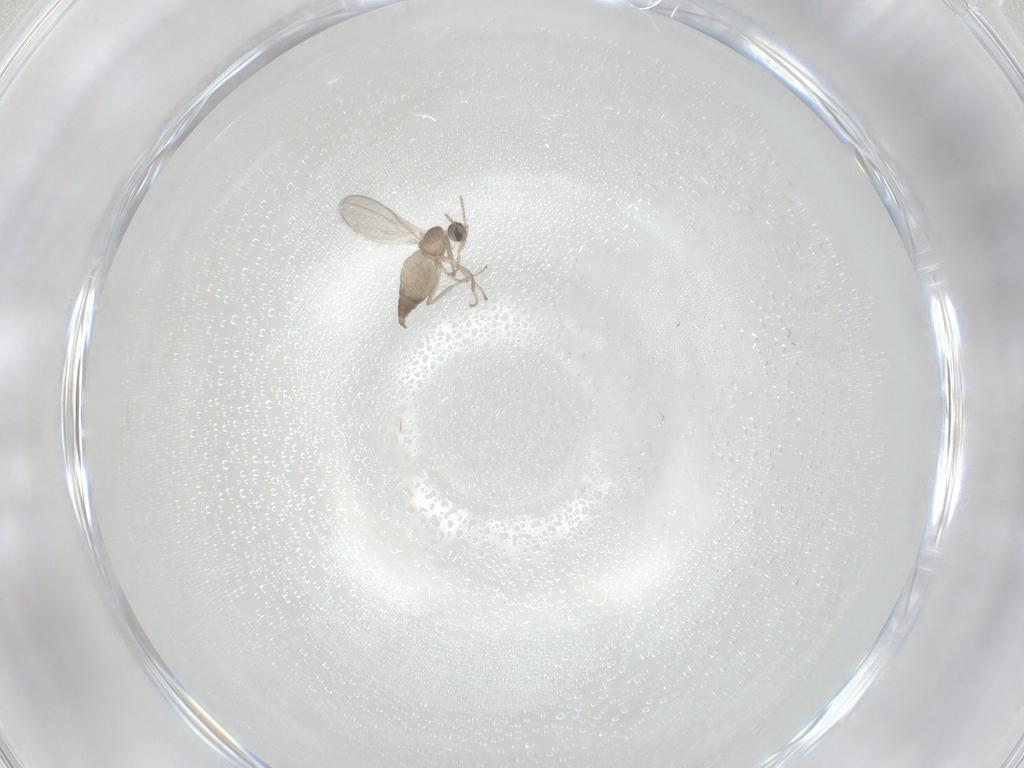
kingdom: Animalia
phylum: Arthropoda
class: Insecta
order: Diptera
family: Cecidomyiidae
